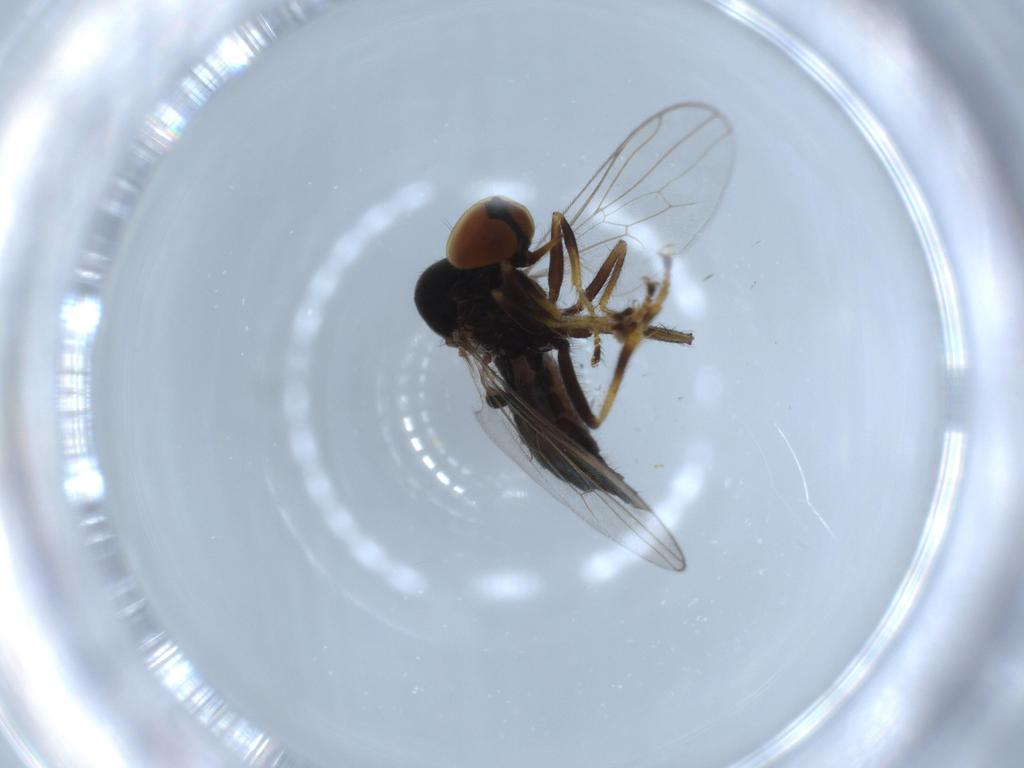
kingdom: Animalia
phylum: Arthropoda
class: Insecta
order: Diptera
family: Hybotidae
